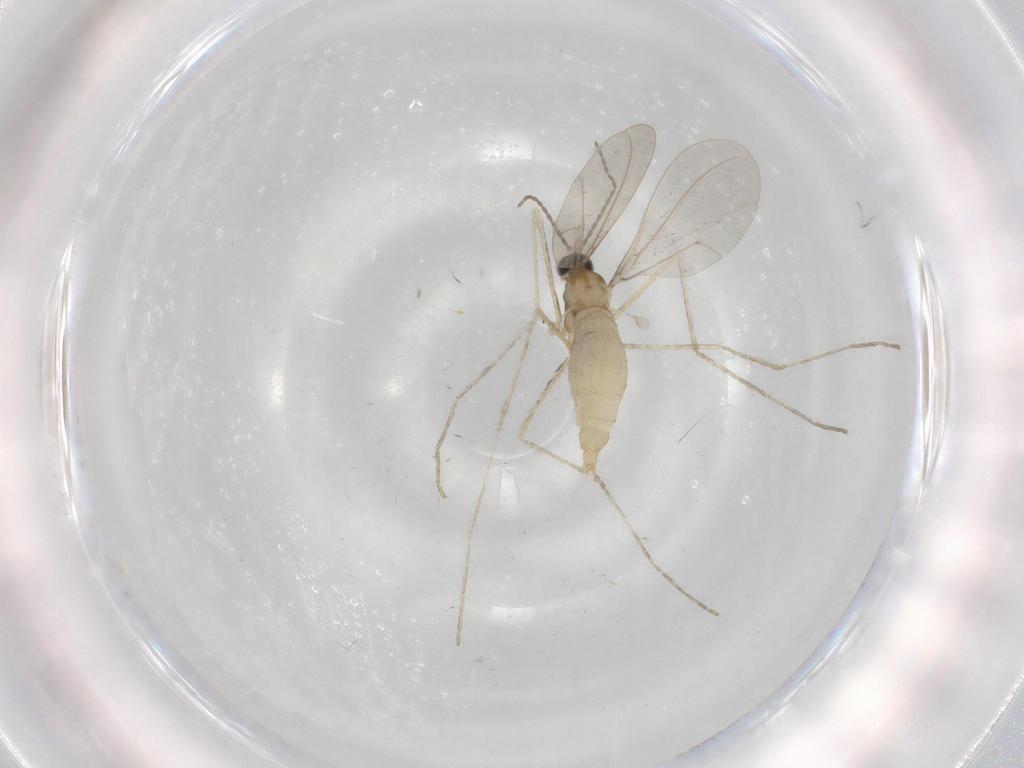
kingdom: Animalia
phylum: Arthropoda
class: Insecta
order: Diptera
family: Cecidomyiidae
